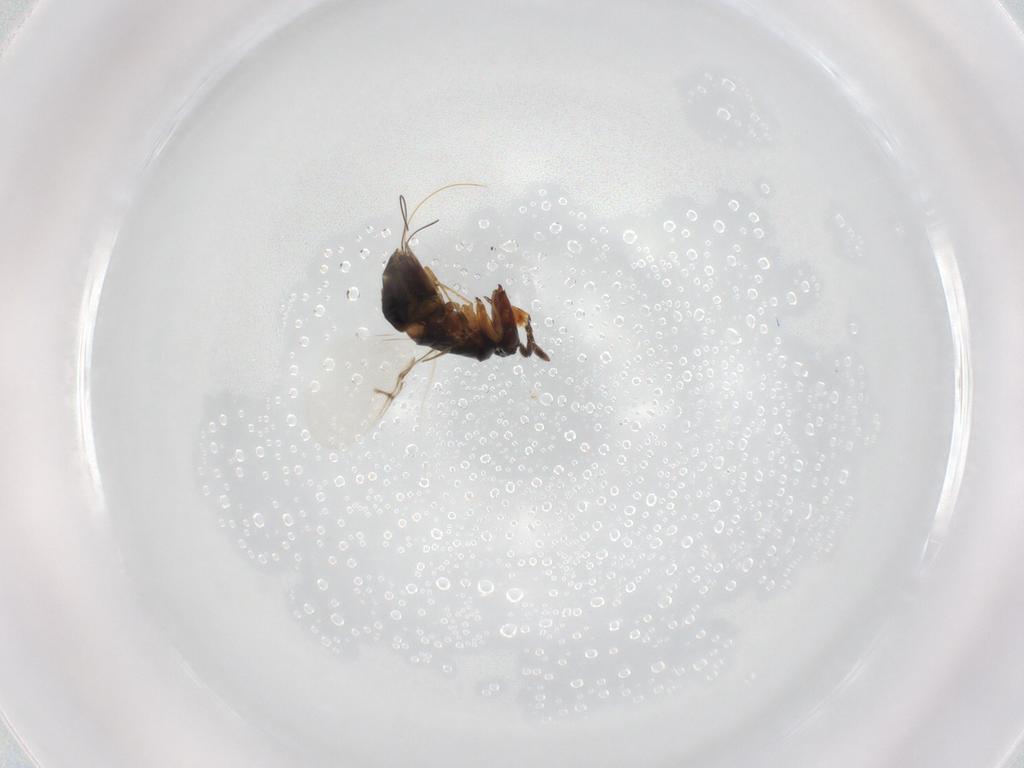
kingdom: Animalia
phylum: Arthropoda
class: Insecta
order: Hymenoptera
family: Agaonidae
